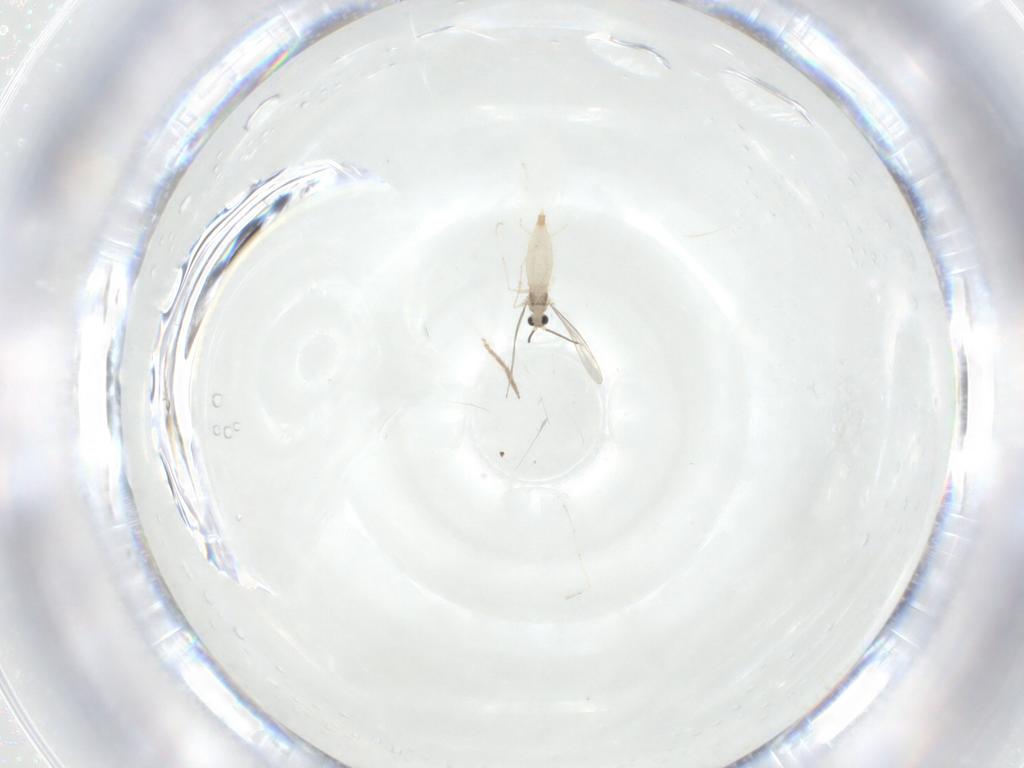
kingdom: Animalia
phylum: Arthropoda
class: Insecta
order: Diptera
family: Cecidomyiidae
